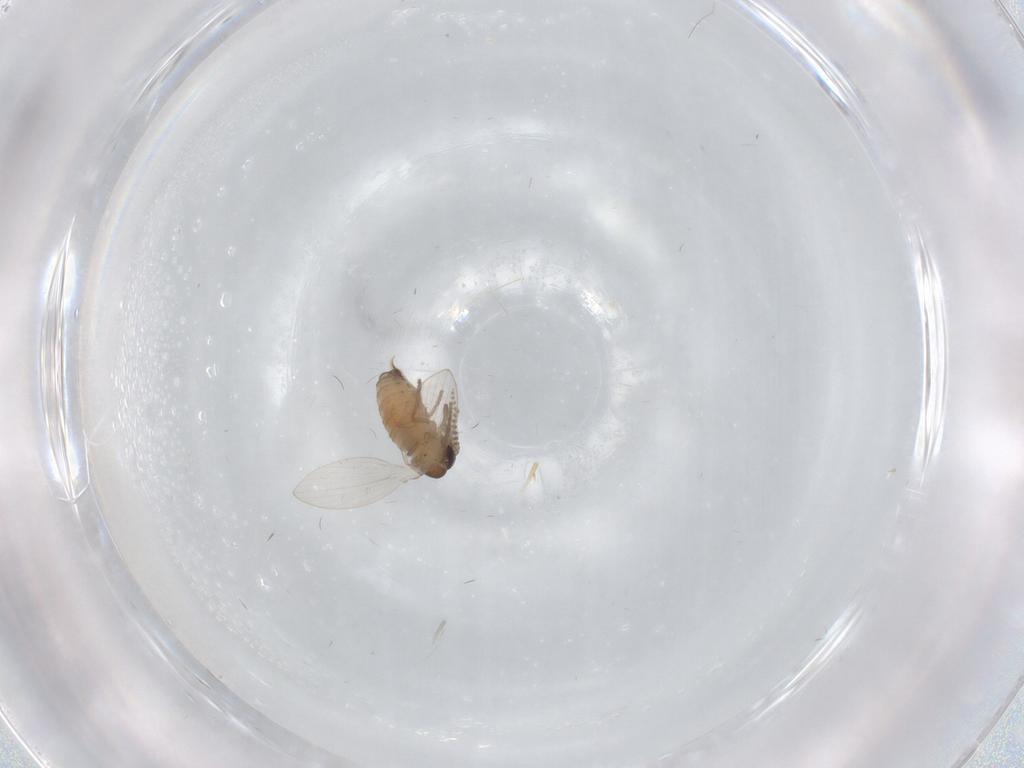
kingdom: Animalia
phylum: Arthropoda
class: Insecta
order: Diptera
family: Psychodidae
